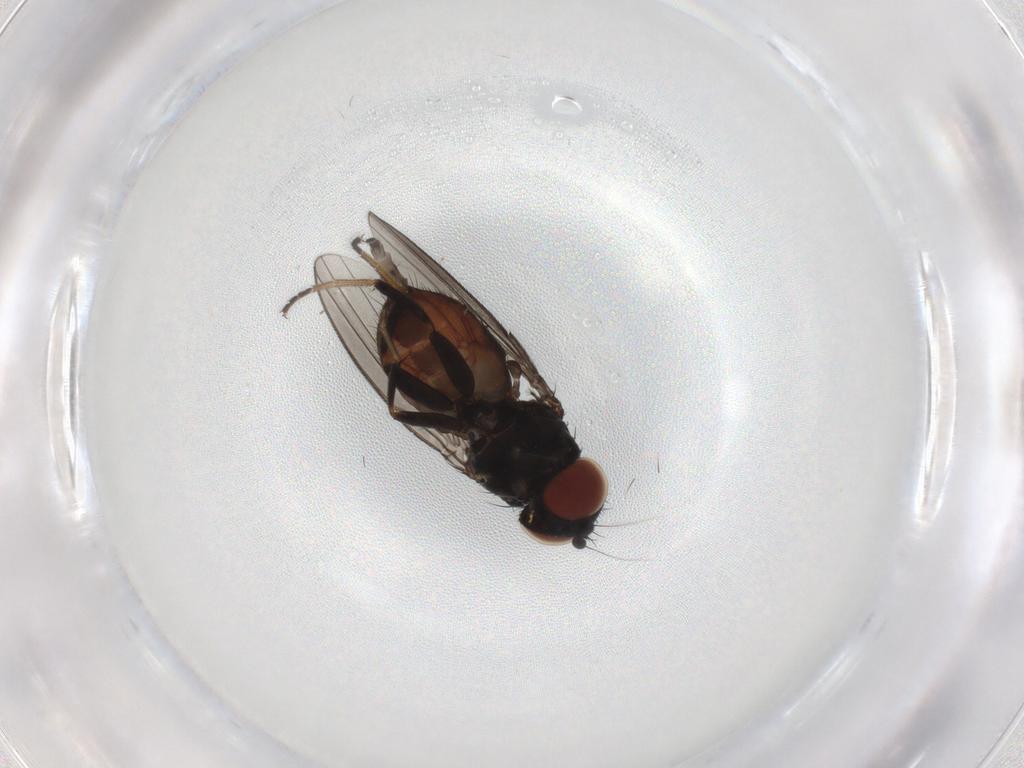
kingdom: Animalia
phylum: Arthropoda
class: Insecta
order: Diptera
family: Milichiidae
